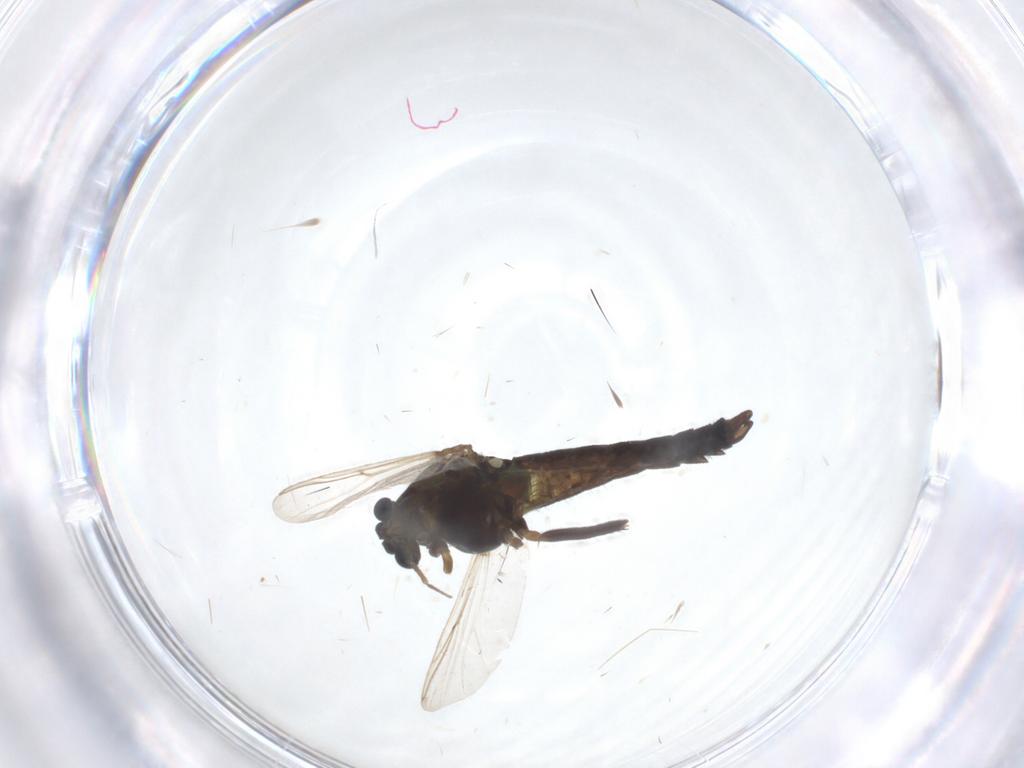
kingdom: Animalia
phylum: Arthropoda
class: Insecta
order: Diptera
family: Chironomidae
